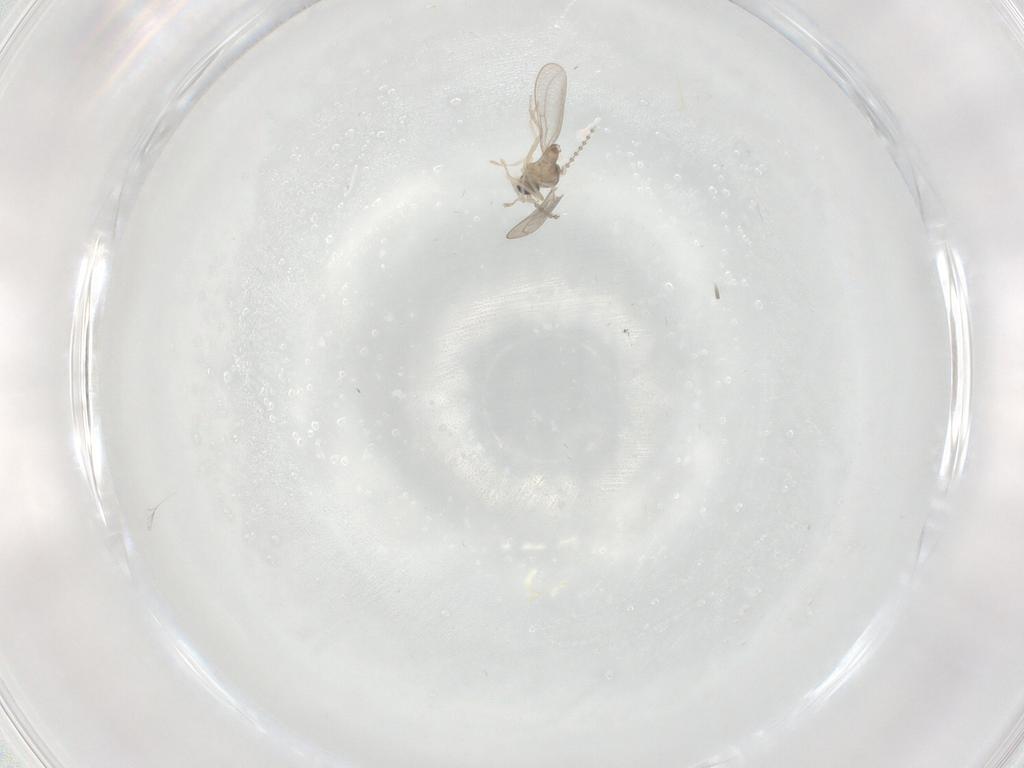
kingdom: Animalia
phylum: Arthropoda
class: Insecta
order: Diptera
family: Cecidomyiidae
